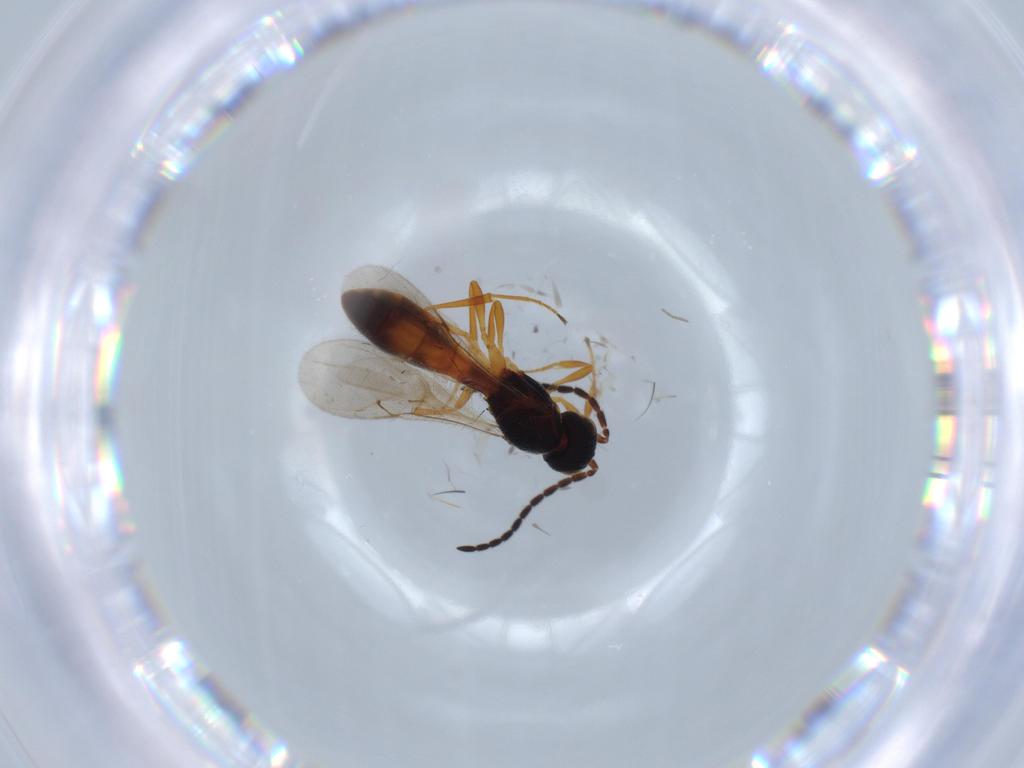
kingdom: Animalia
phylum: Arthropoda
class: Insecta
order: Hymenoptera
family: Scelionidae
